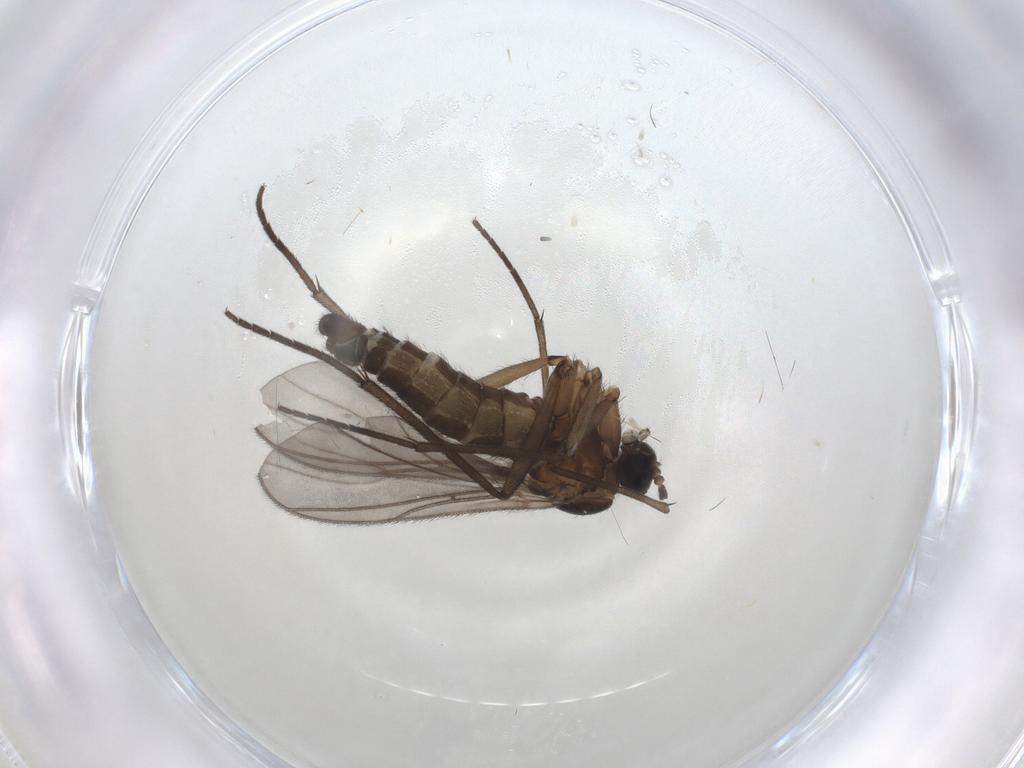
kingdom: Animalia
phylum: Arthropoda
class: Insecta
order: Diptera
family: Sciaridae
